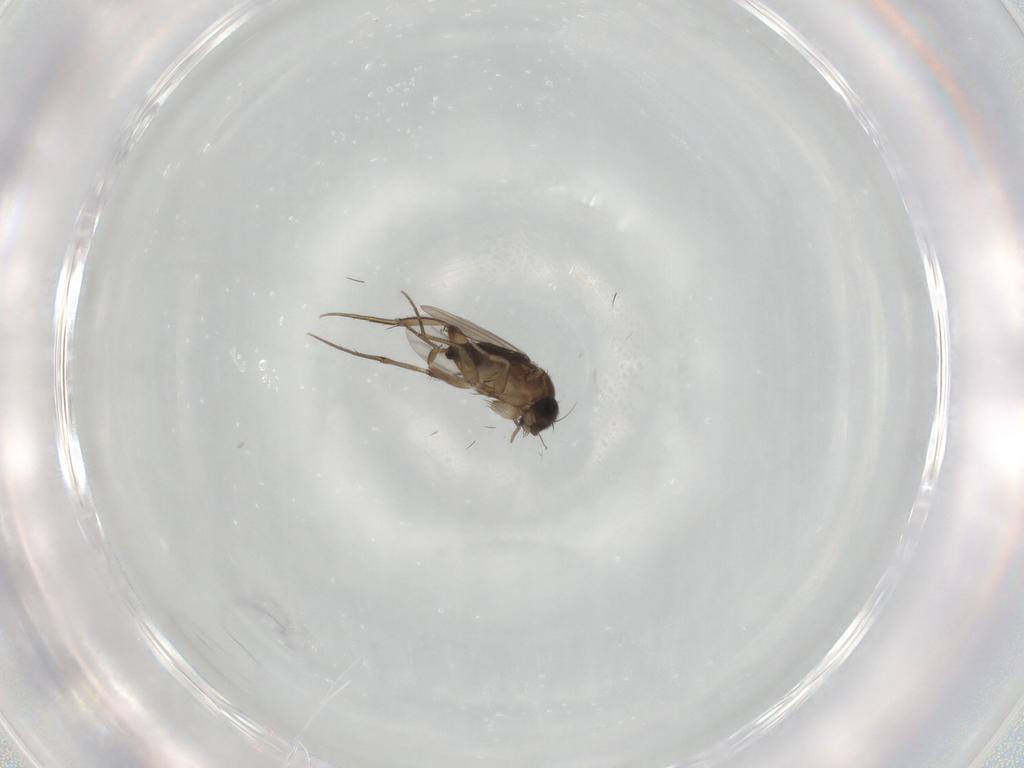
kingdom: Animalia
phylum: Arthropoda
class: Insecta
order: Diptera
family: Phoridae
